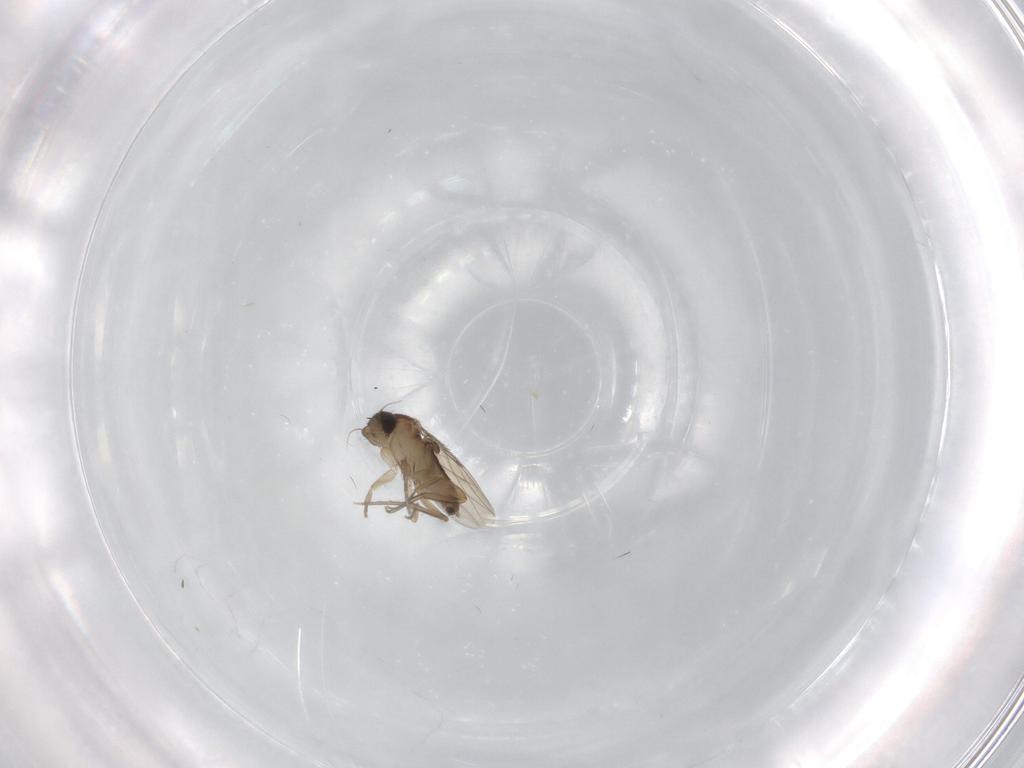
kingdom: Animalia
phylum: Arthropoda
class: Insecta
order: Diptera
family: Phoridae
